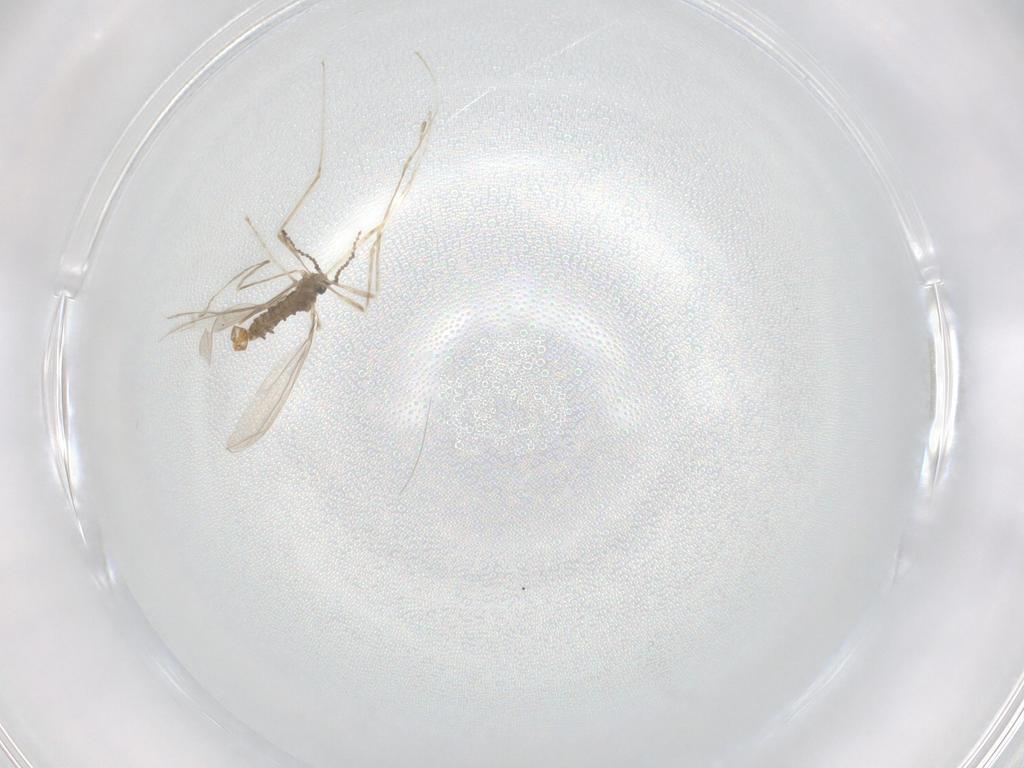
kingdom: Animalia
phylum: Arthropoda
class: Insecta
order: Diptera
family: Cecidomyiidae
